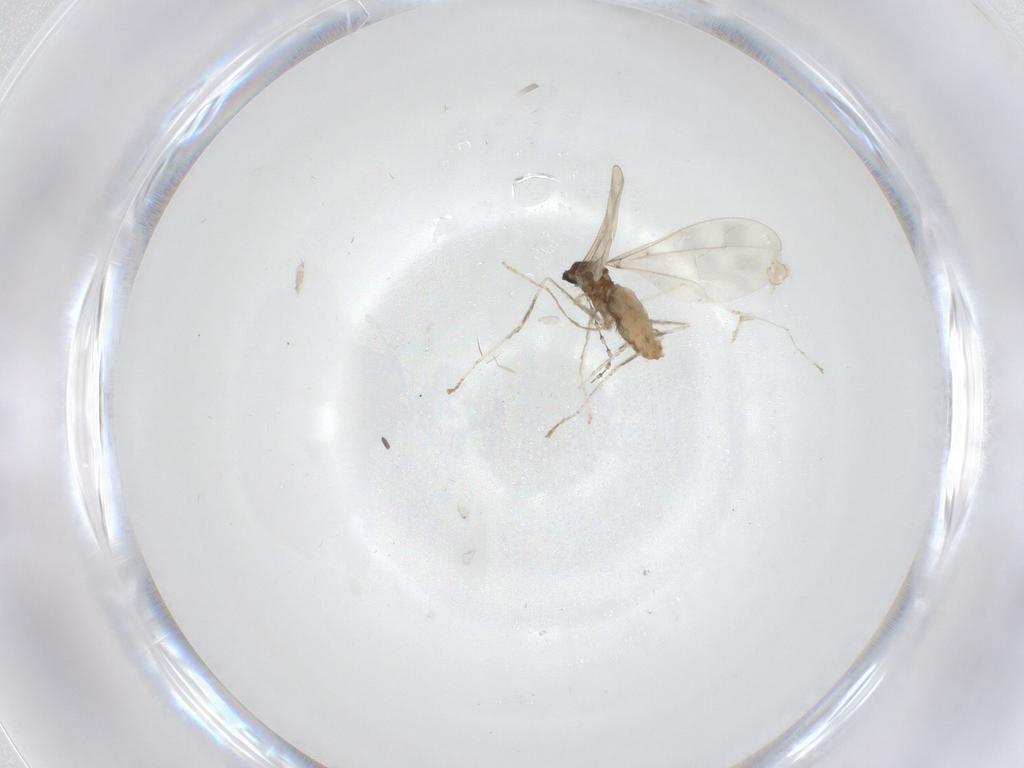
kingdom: Animalia
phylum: Arthropoda
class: Insecta
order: Diptera
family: Cecidomyiidae
